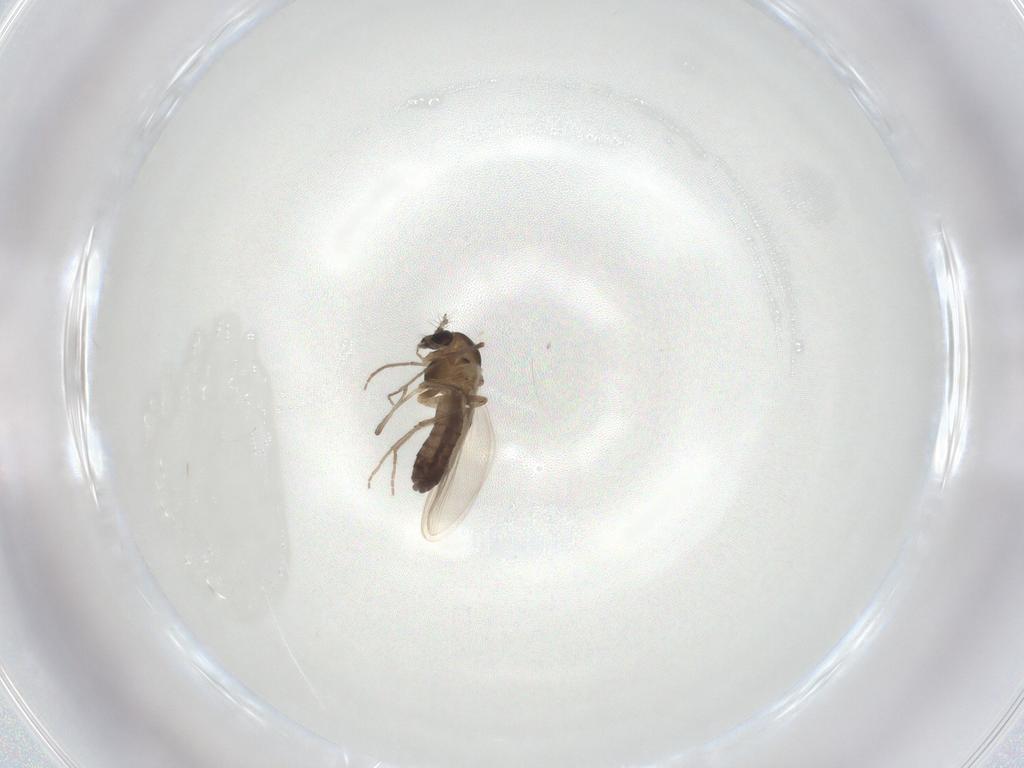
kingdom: Animalia
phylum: Arthropoda
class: Insecta
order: Diptera
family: Chironomidae
